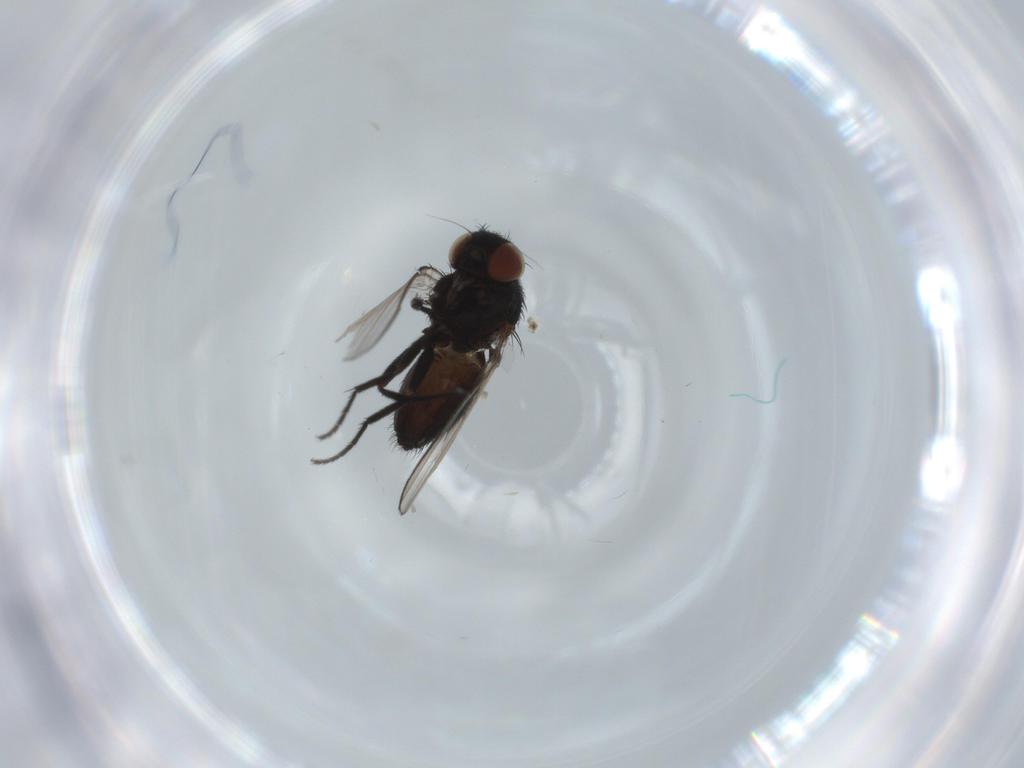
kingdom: Animalia
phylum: Arthropoda
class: Insecta
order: Diptera
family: Milichiidae
